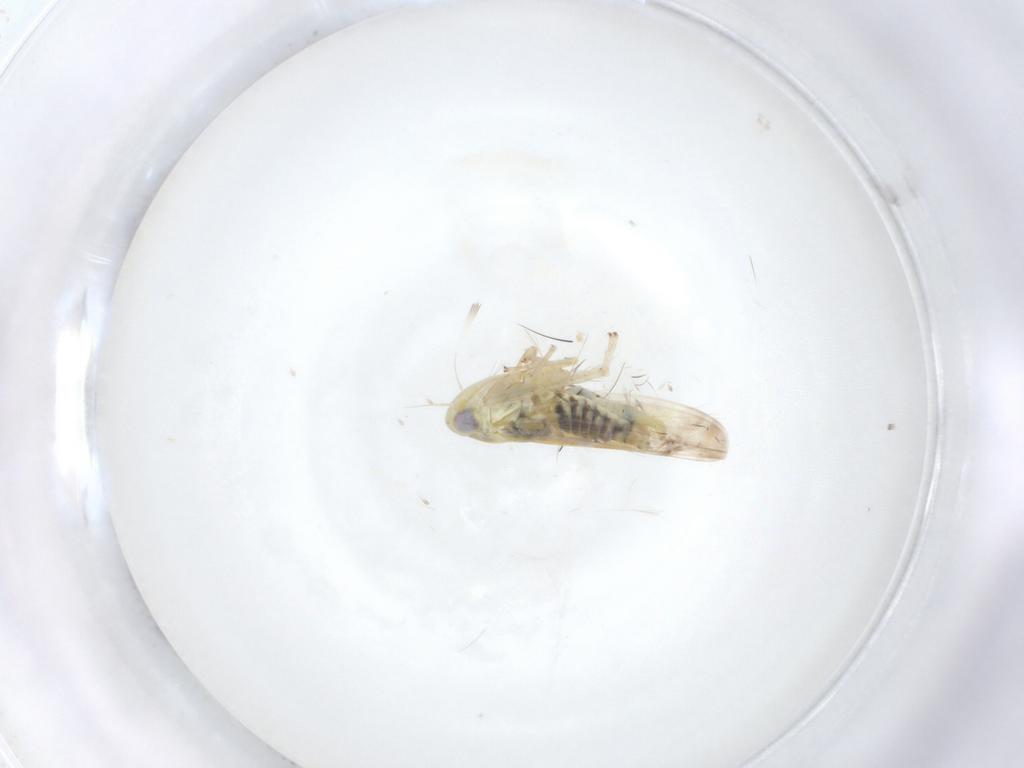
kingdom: Animalia
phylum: Arthropoda
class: Insecta
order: Hemiptera
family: Cicadellidae
